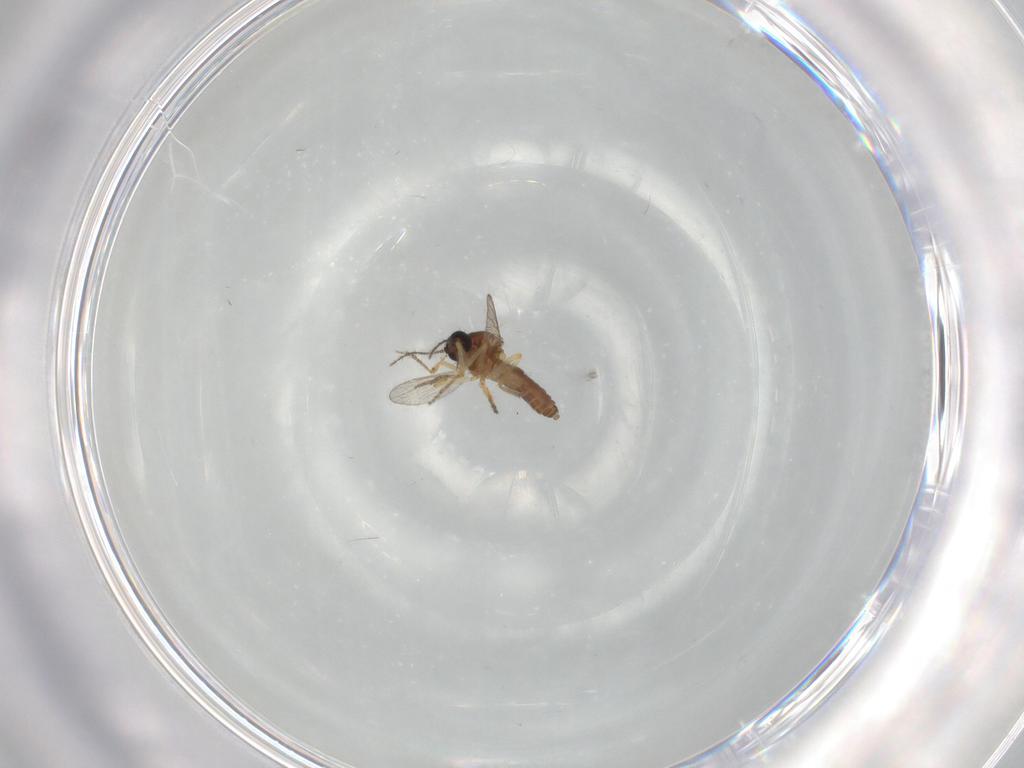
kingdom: Animalia
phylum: Arthropoda
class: Insecta
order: Diptera
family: Ceratopogonidae
